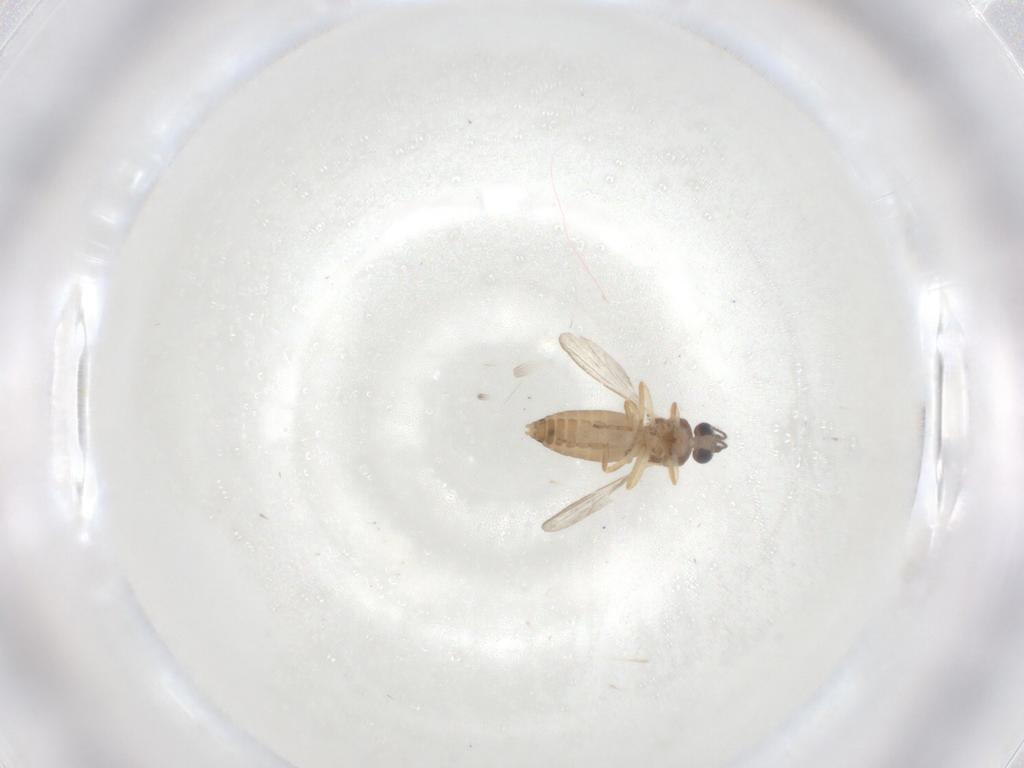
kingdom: Animalia
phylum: Arthropoda
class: Insecta
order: Diptera
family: Ceratopogonidae
